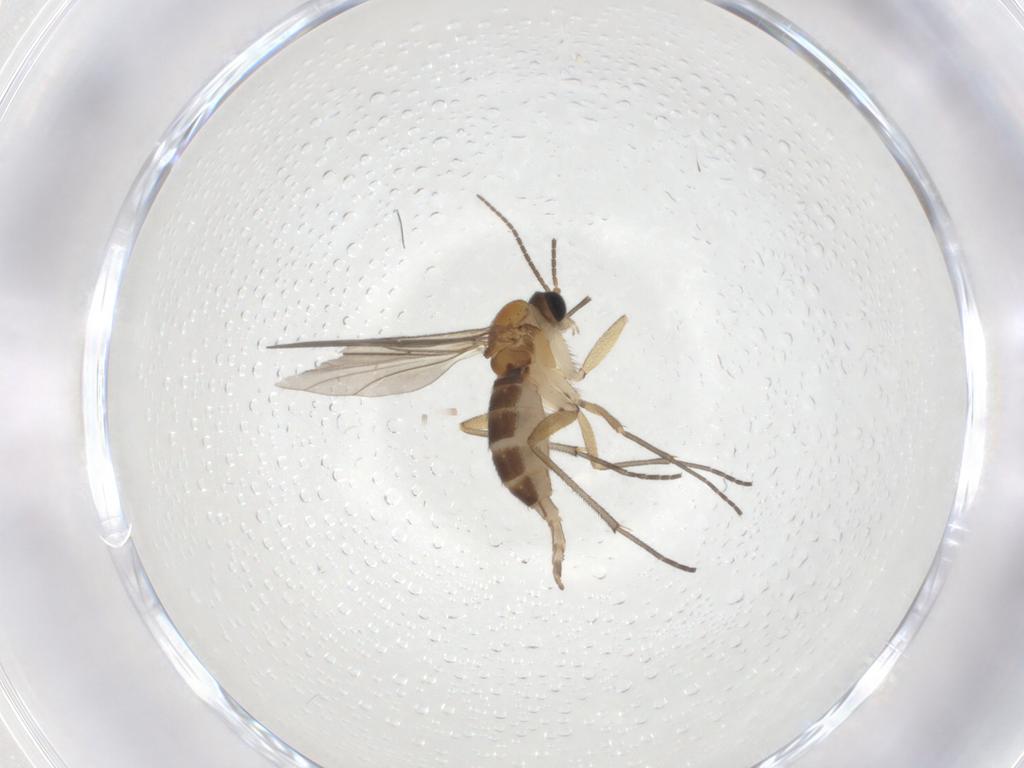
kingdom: Animalia
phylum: Arthropoda
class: Insecta
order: Diptera
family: Sciaridae
